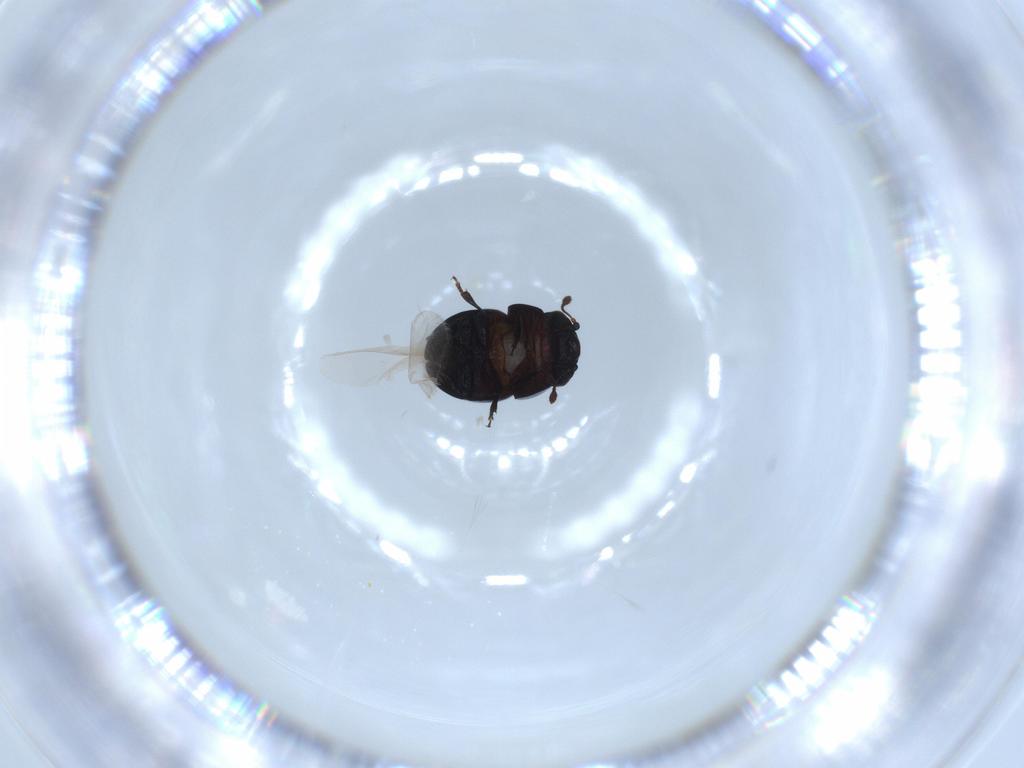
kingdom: Animalia
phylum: Arthropoda
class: Insecta
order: Coleoptera
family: Cybocephalidae
